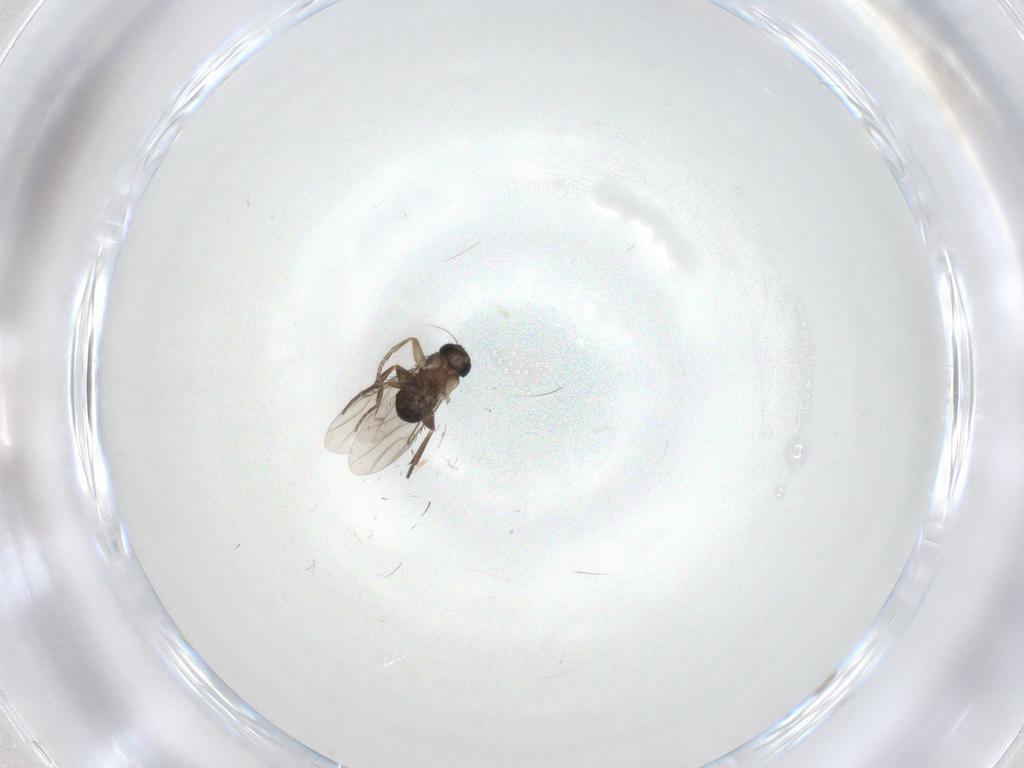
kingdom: Animalia
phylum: Arthropoda
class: Insecta
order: Diptera
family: Milichiidae
